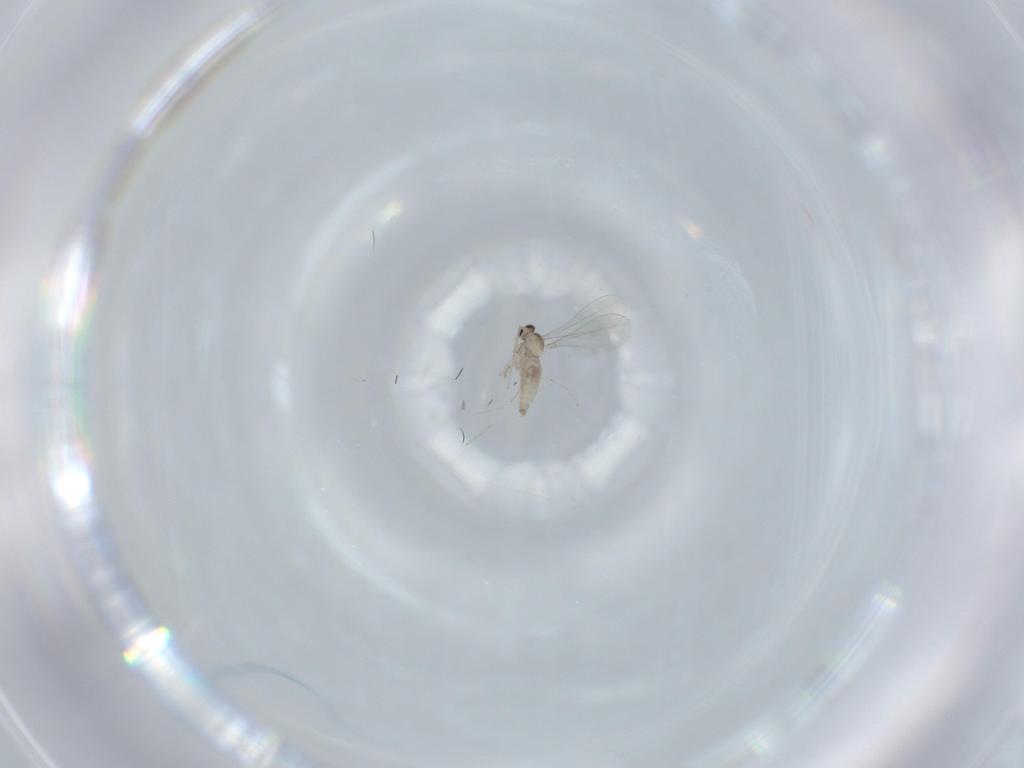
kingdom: Animalia
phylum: Arthropoda
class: Insecta
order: Diptera
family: Cecidomyiidae
